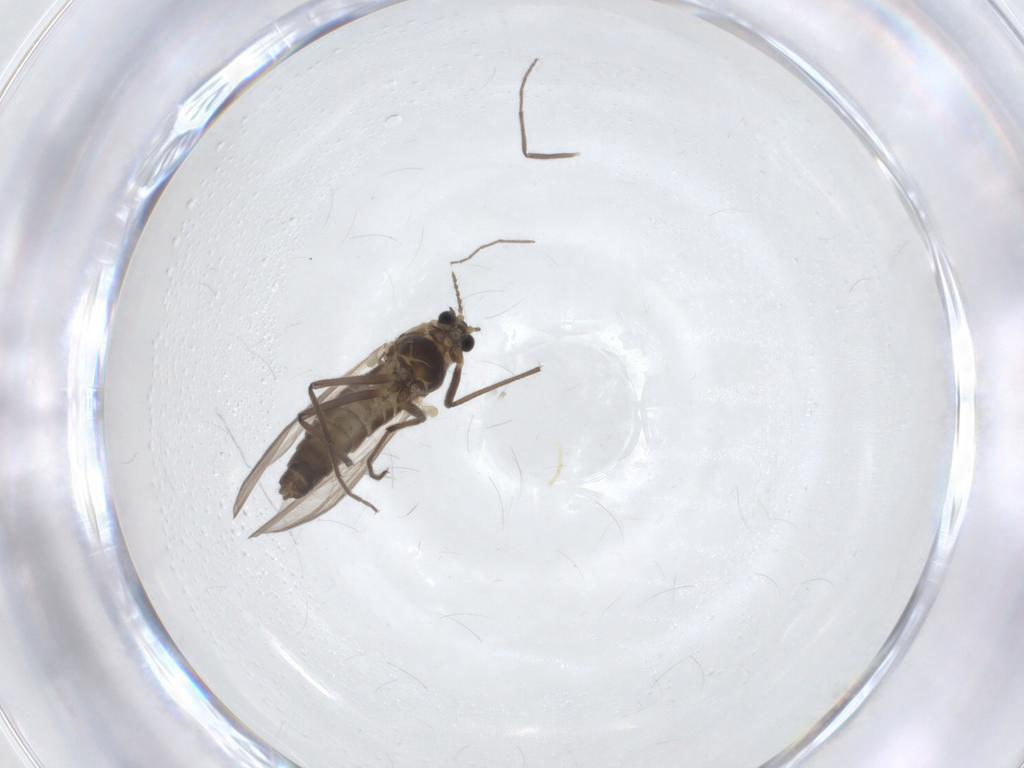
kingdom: Animalia
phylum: Arthropoda
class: Insecta
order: Diptera
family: Chironomidae
